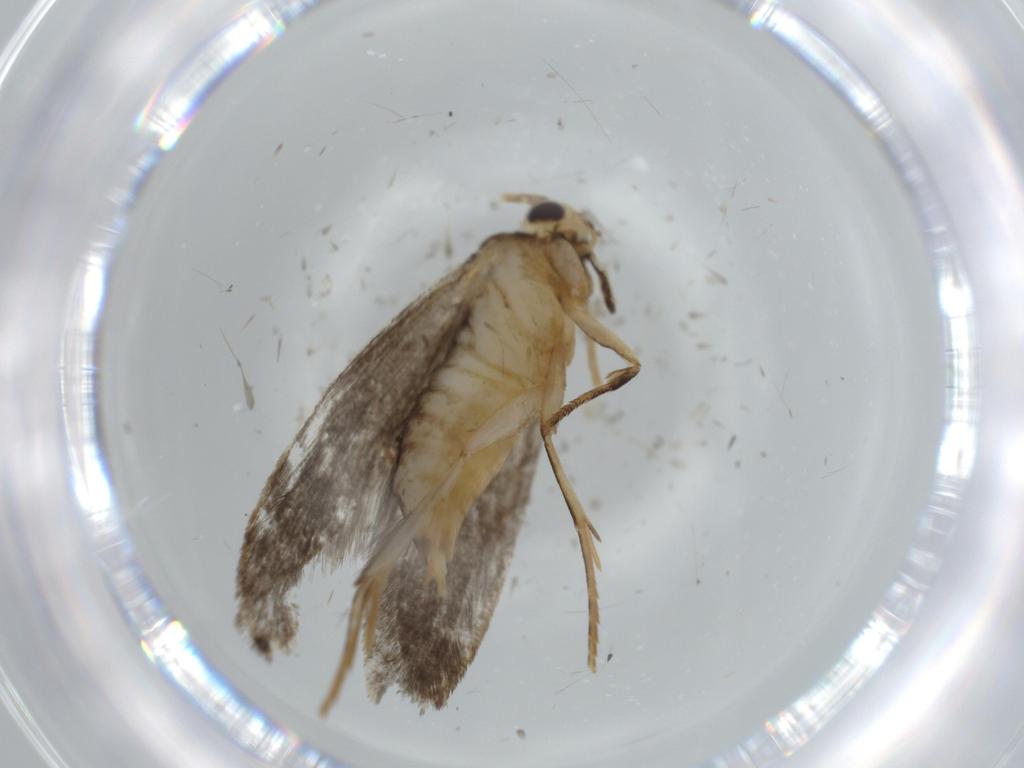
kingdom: Animalia
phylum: Arthropoda
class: Insecta
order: Lepidoptera
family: Gelechiidae
